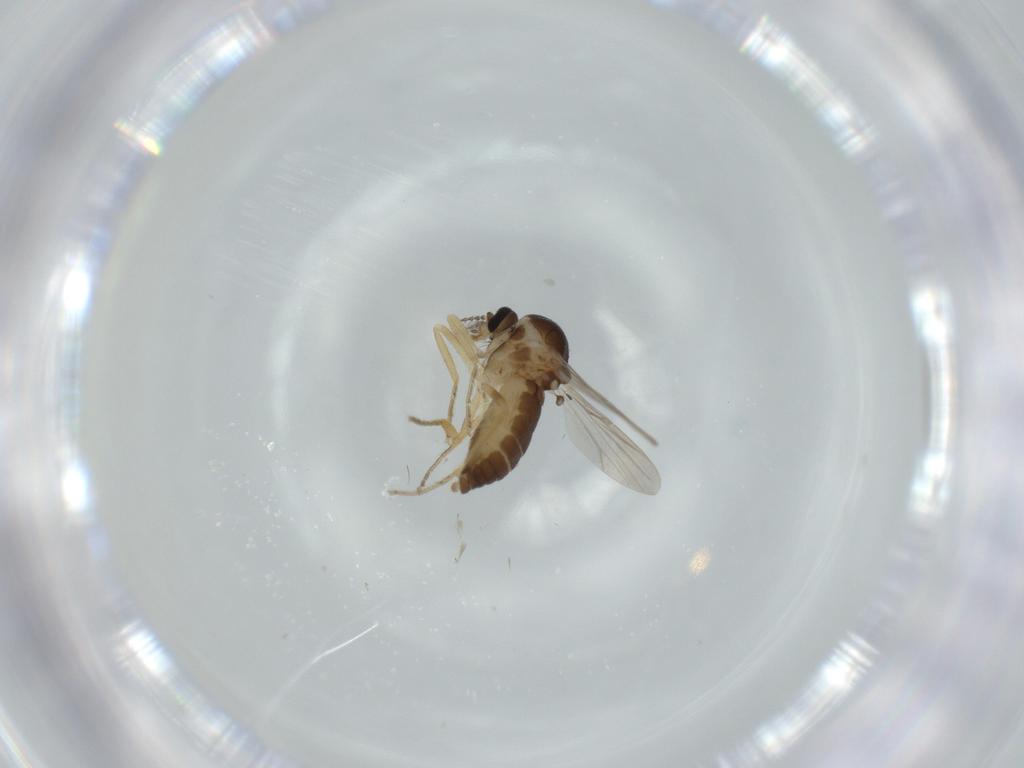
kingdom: Animalia
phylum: Arthropoda
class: Insecta
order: Diptera
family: Ceratopogonidae
